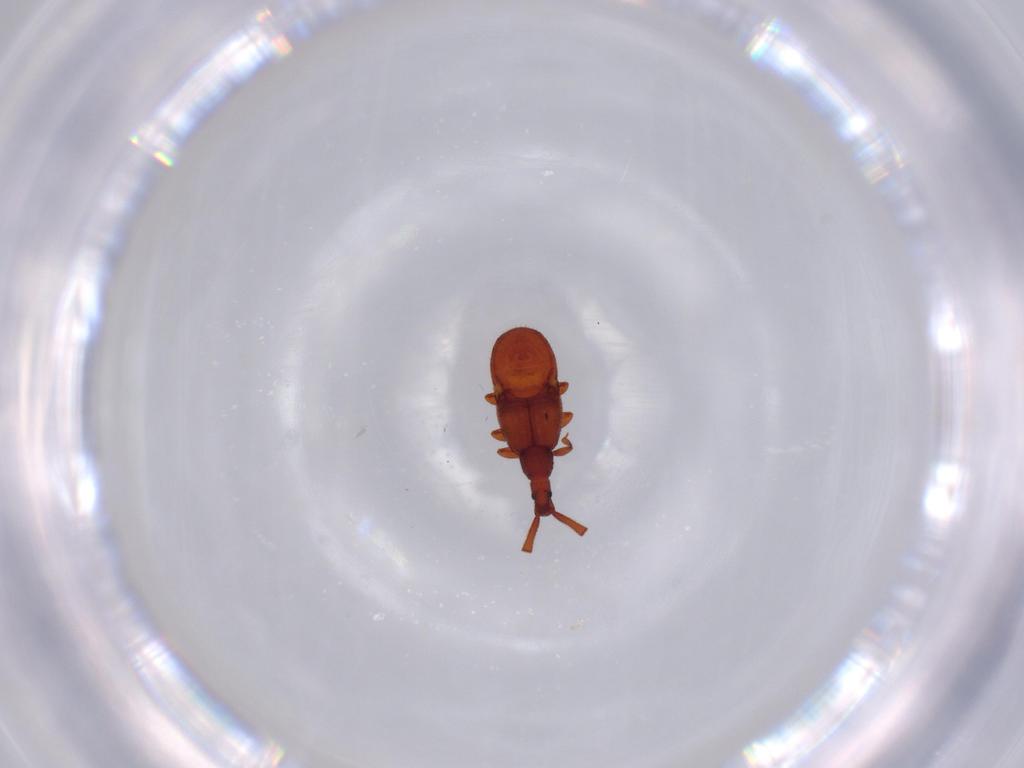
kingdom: Animalia
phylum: Arthropoda
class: Insecta
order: Coleoptera
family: Staphylinidae
